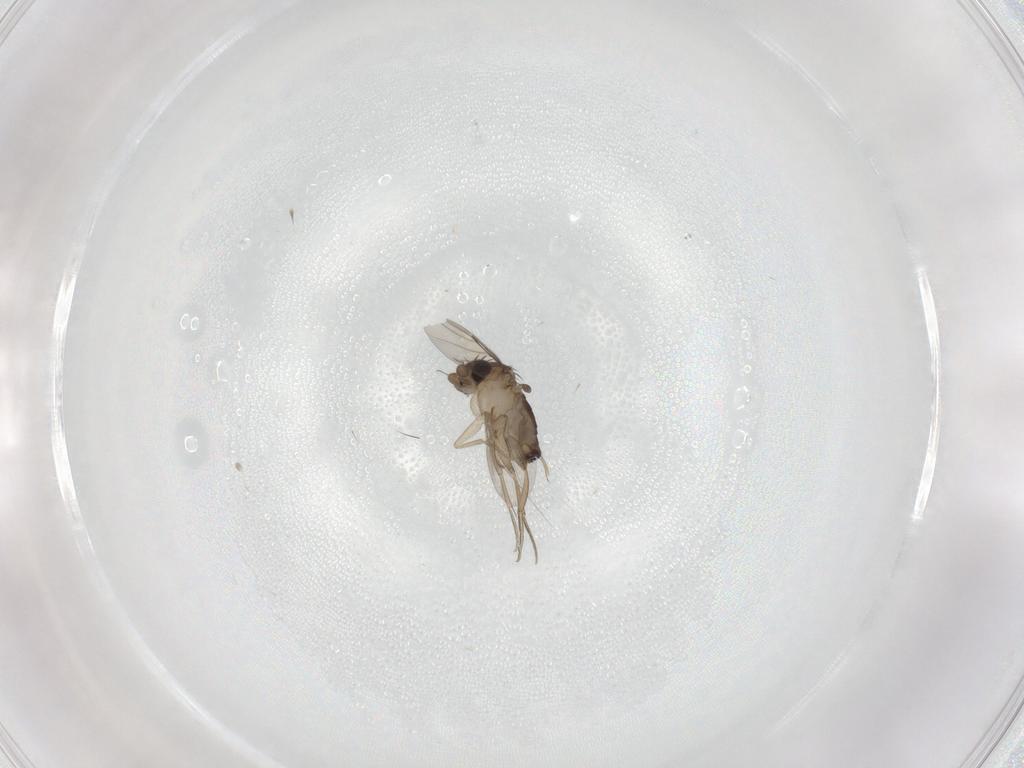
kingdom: Animalia
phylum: Arthropoda
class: Insecta
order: Diptera
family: Phoridae
